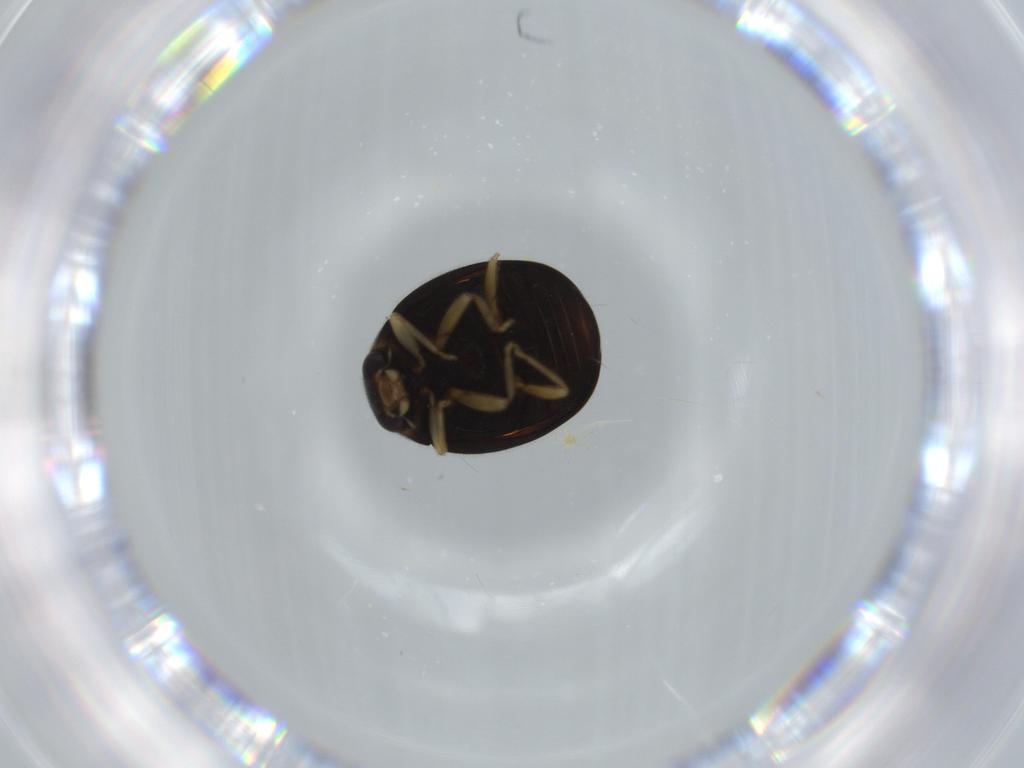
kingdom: Animalia
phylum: Arthropoda
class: Insecta
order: Coleoptera
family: Coccinellidae
